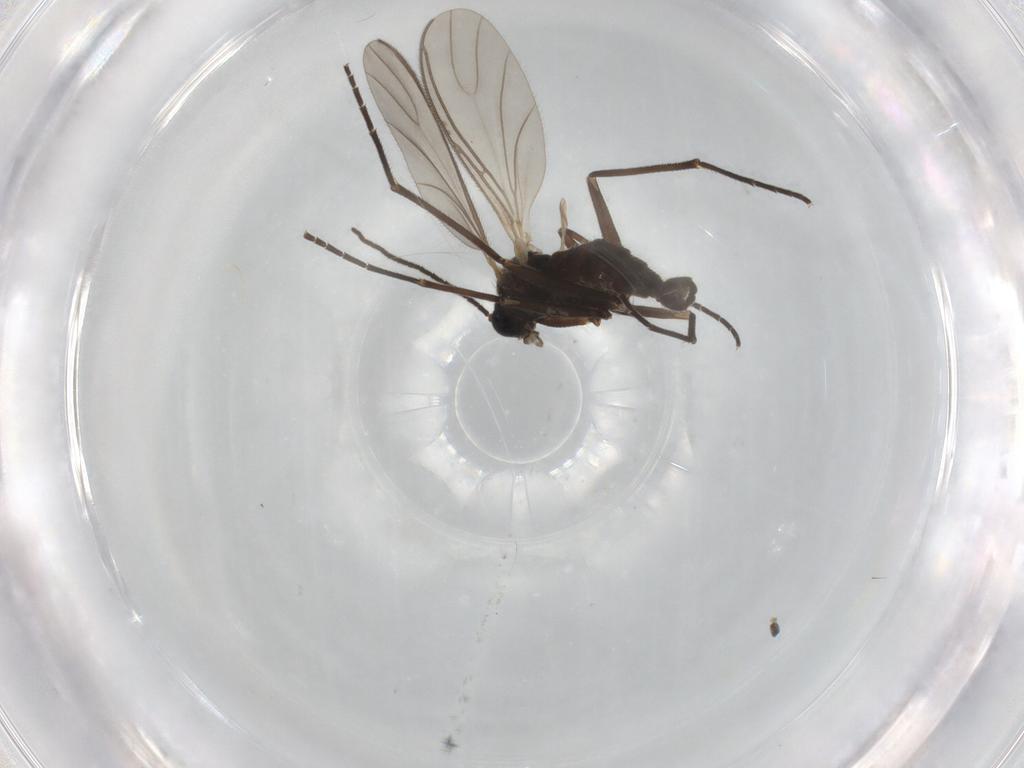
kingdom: Animalia
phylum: Arthropoda
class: Insecta
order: Diptera
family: Sciaridae
